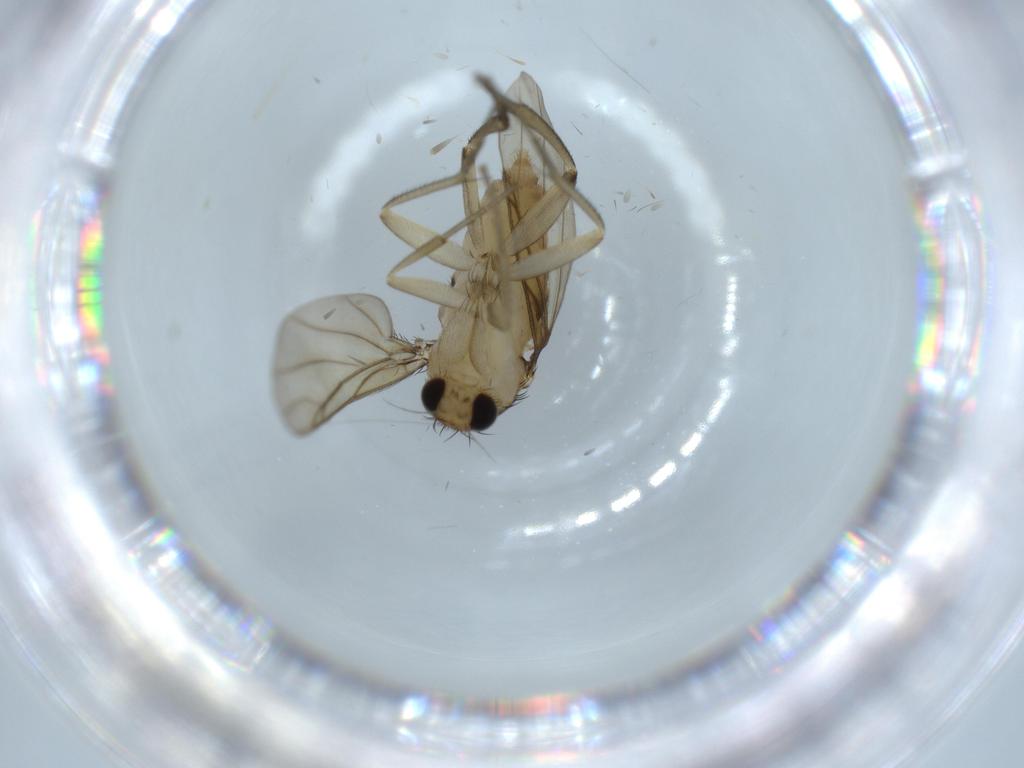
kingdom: Animalia
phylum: Arthropoda
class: Insecta
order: Diptera
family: Phoridae
